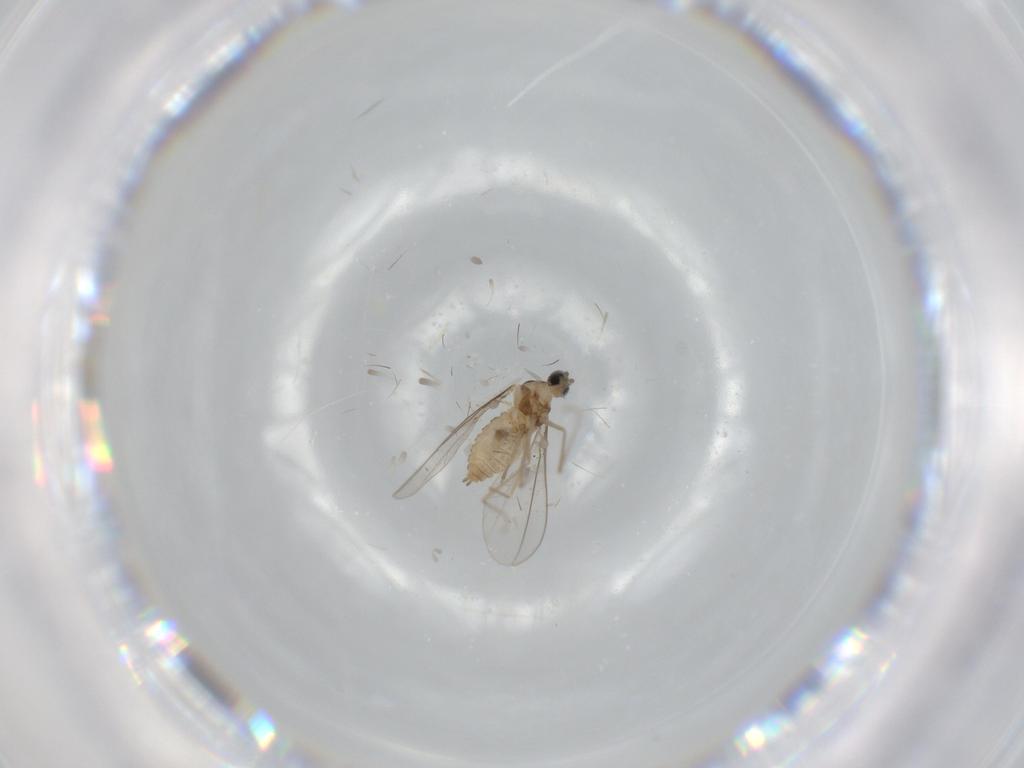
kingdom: Animalia
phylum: Arthropoda
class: Insecta
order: Diptera
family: Cecidomyiidae
